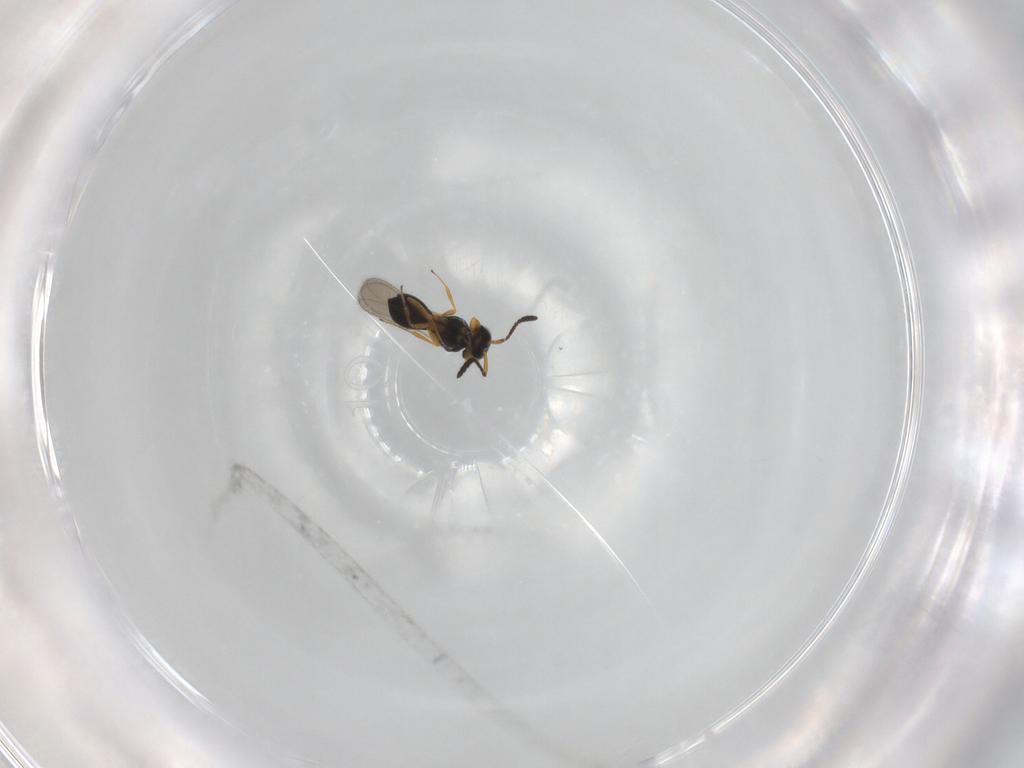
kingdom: Animalia
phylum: Arthropoda
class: Insecta
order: Hymenoptera
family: Scelionidae
